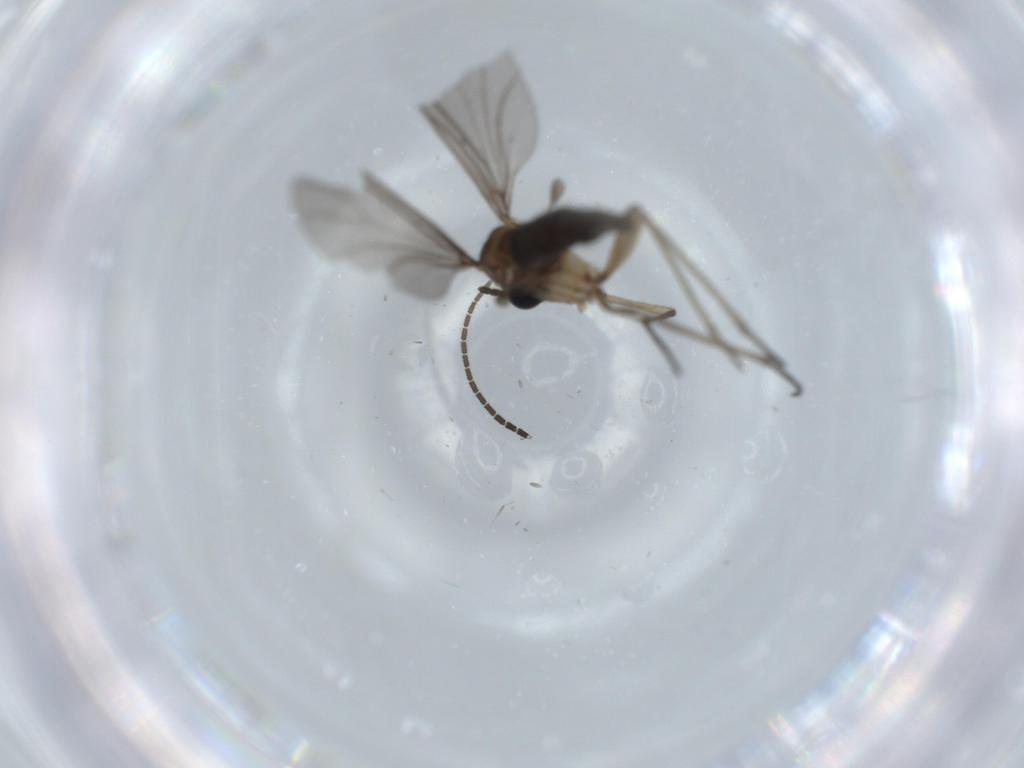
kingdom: Animalia
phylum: Arthropoda
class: Insecta
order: Diptera
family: Sciaridae
